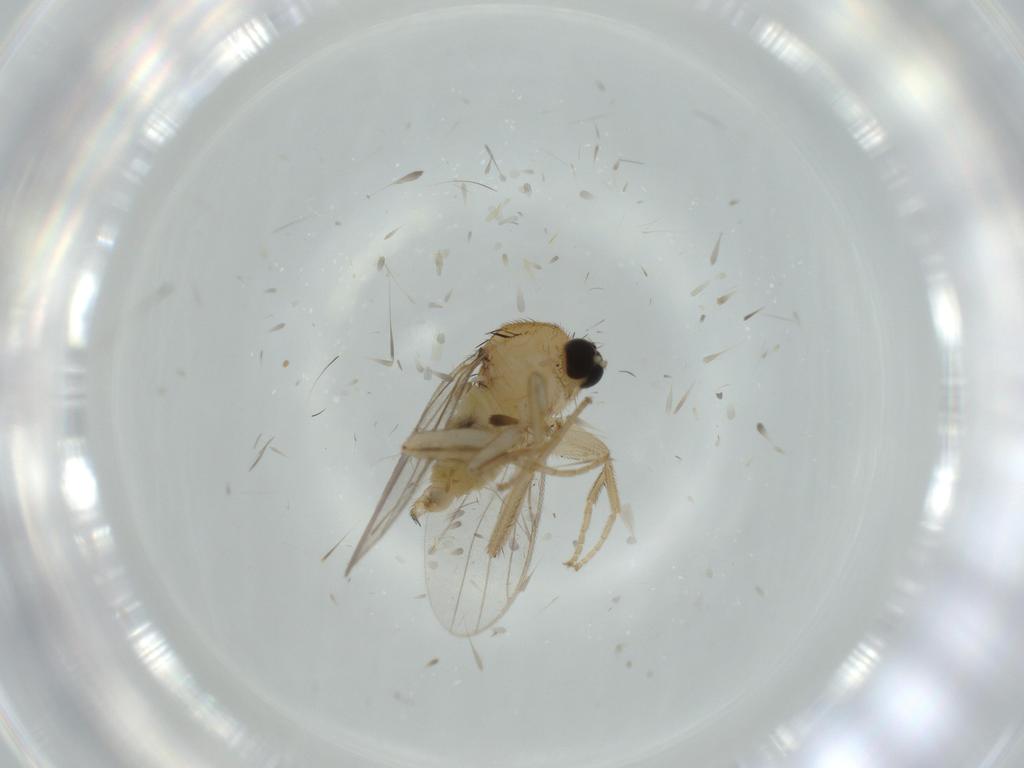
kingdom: Animalia
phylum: Arthropoda
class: Insecta
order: Diptera
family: Hybotidae
